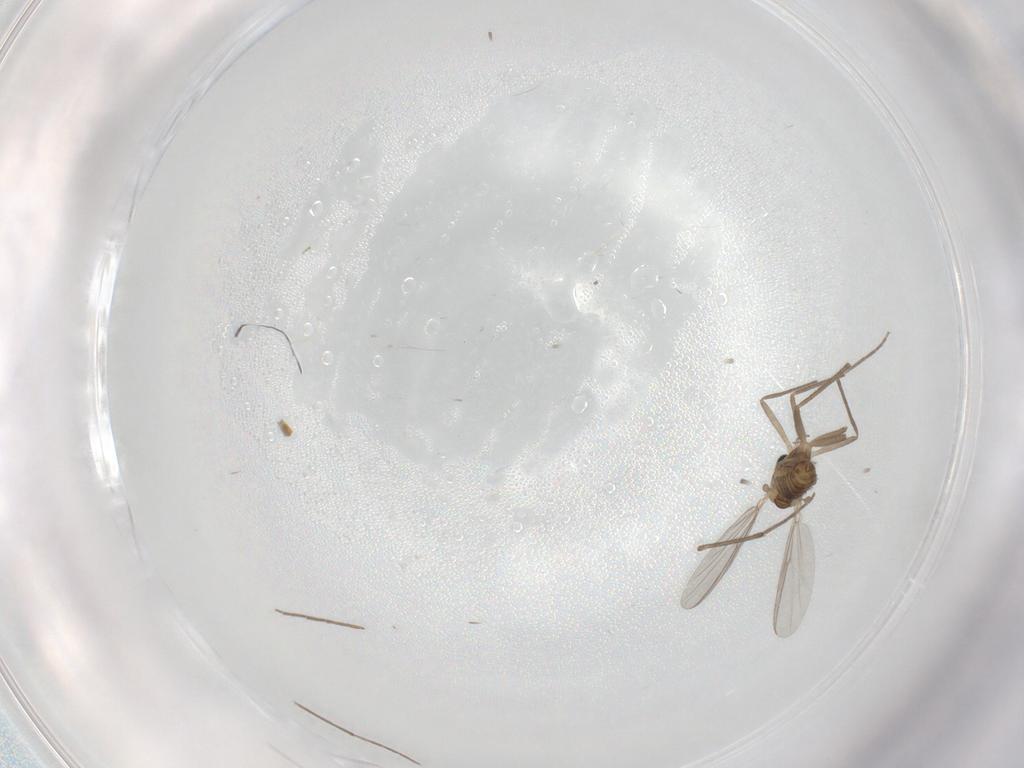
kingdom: Animalia
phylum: Arthropoda
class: Insecta
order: Diptera
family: Chironomidae
